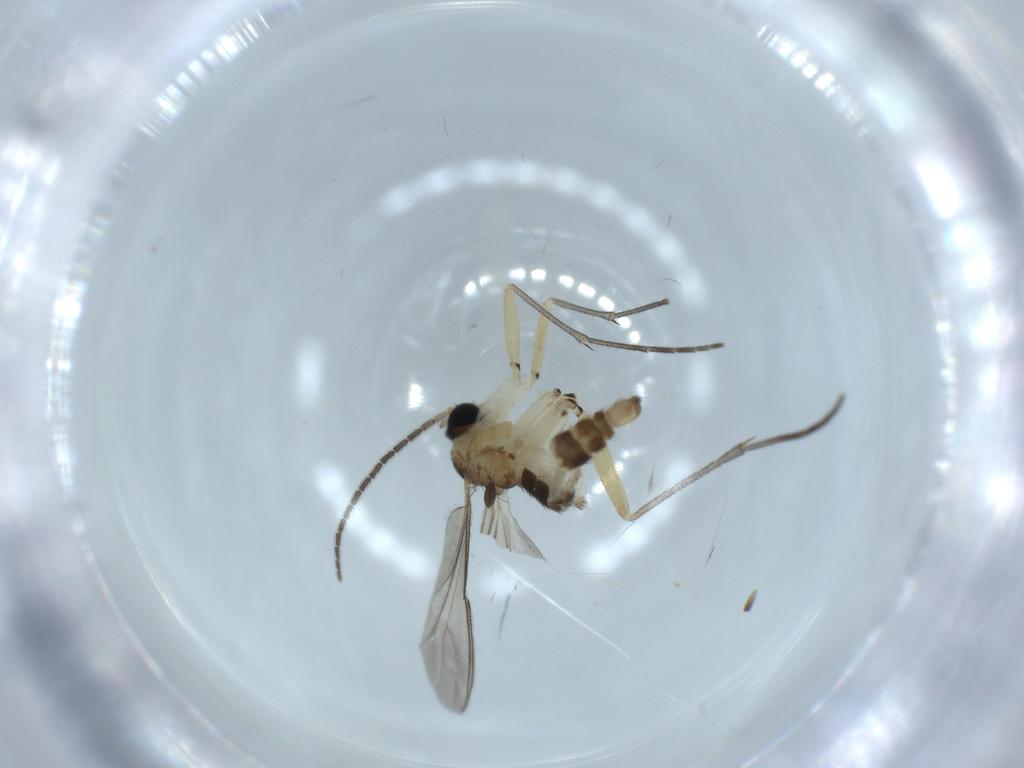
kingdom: Animalia
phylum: Arthropoda
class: Insecta
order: Diptera
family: Sciaridae
